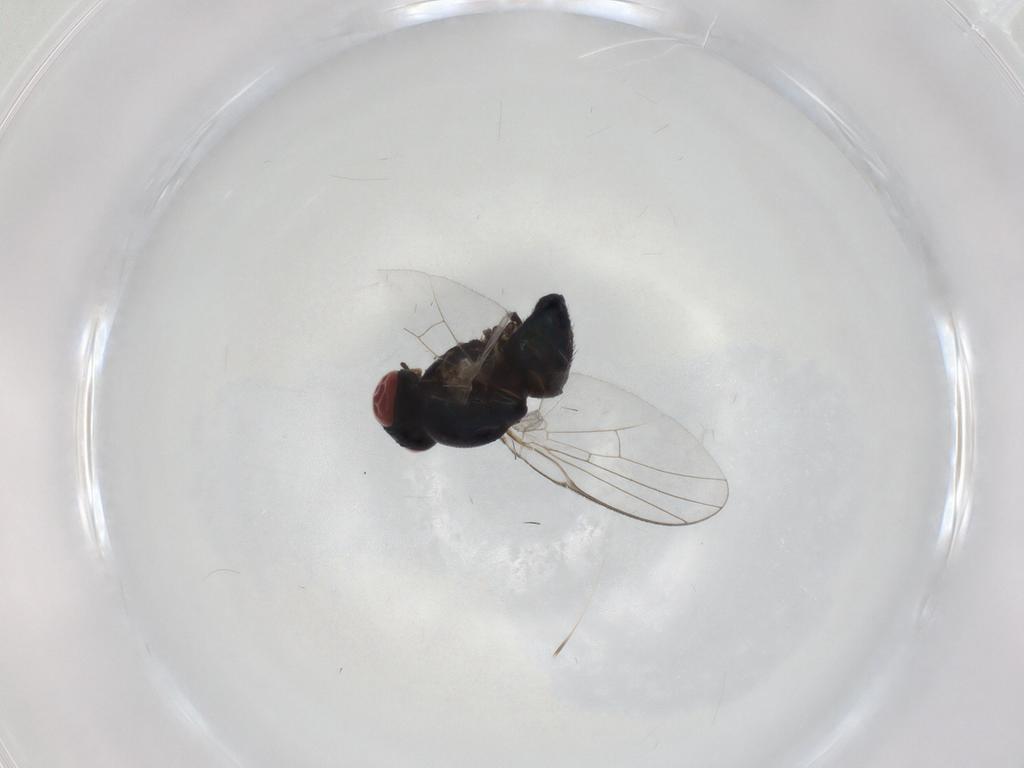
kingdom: Animalia
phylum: Arthropoda
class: Insecta
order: Diptera
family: Agromyzidae
